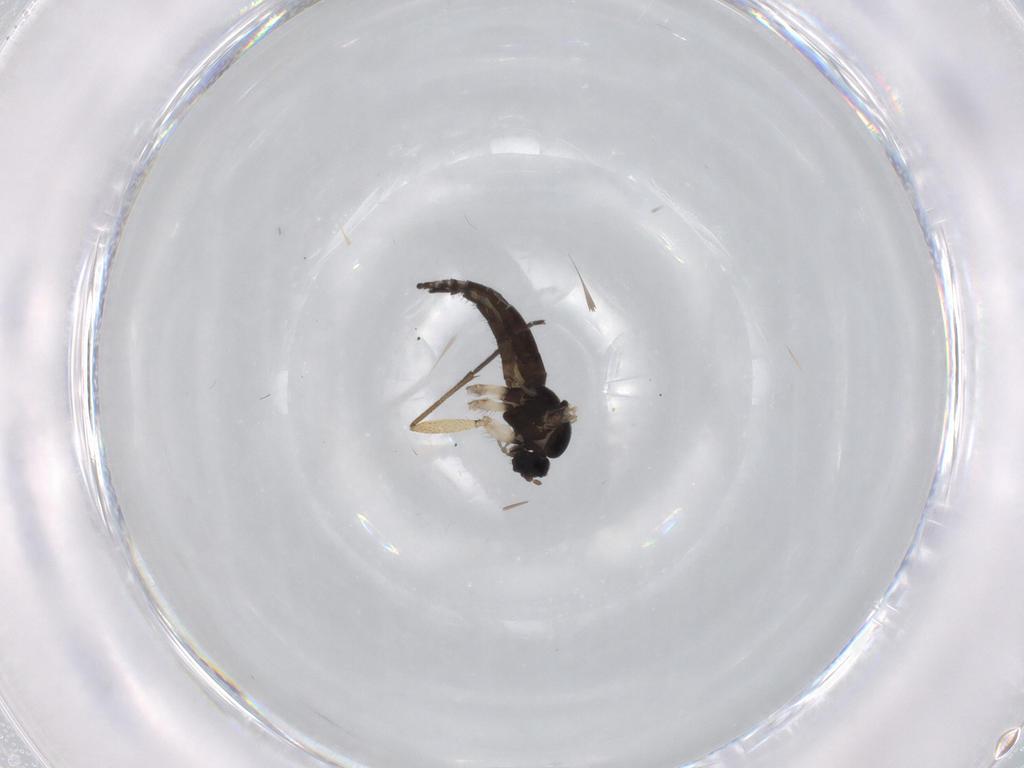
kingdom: Animalia
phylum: Arthropoda
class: Insecta
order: Diptera
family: Sciaridae
